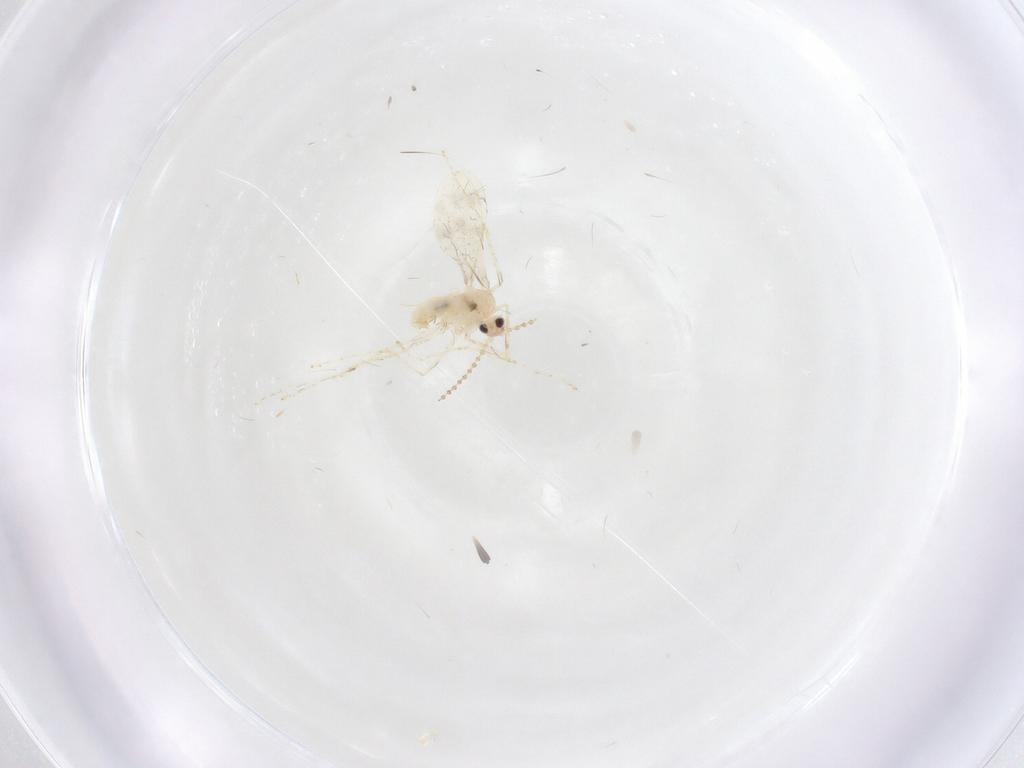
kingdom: Animalia
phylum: Arthropoda
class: Insecta
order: Diptera
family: Cecidomyiidae
